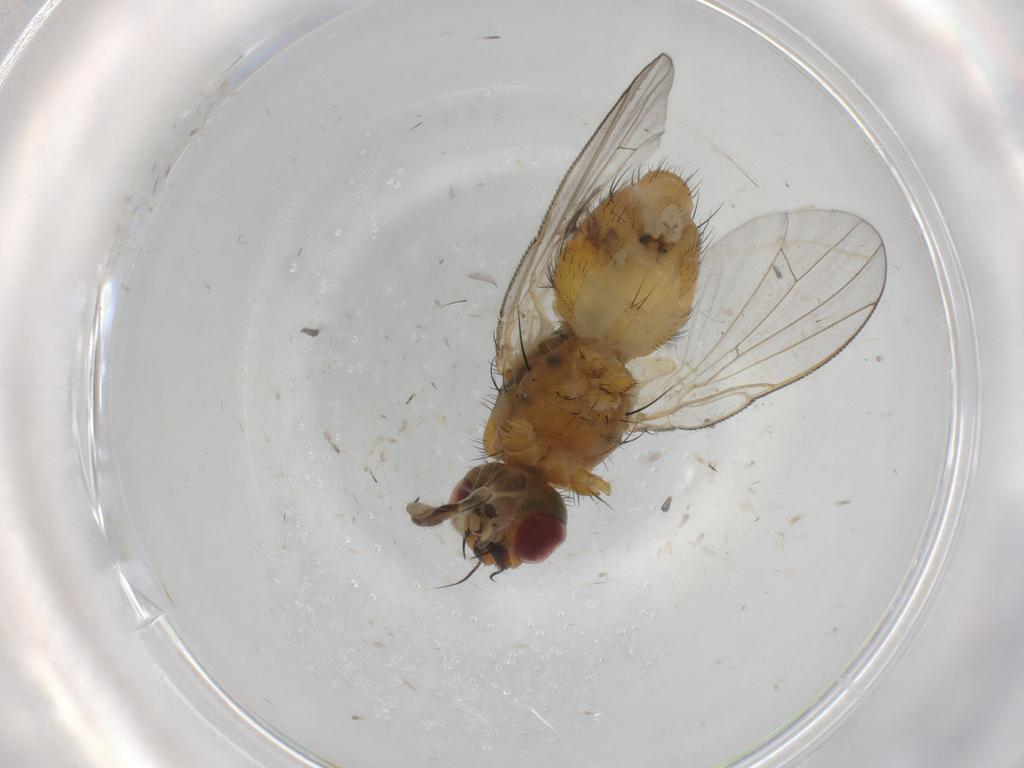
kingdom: Animalia
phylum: Arthropoda
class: Insecta
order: Diptera
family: Muscidae
